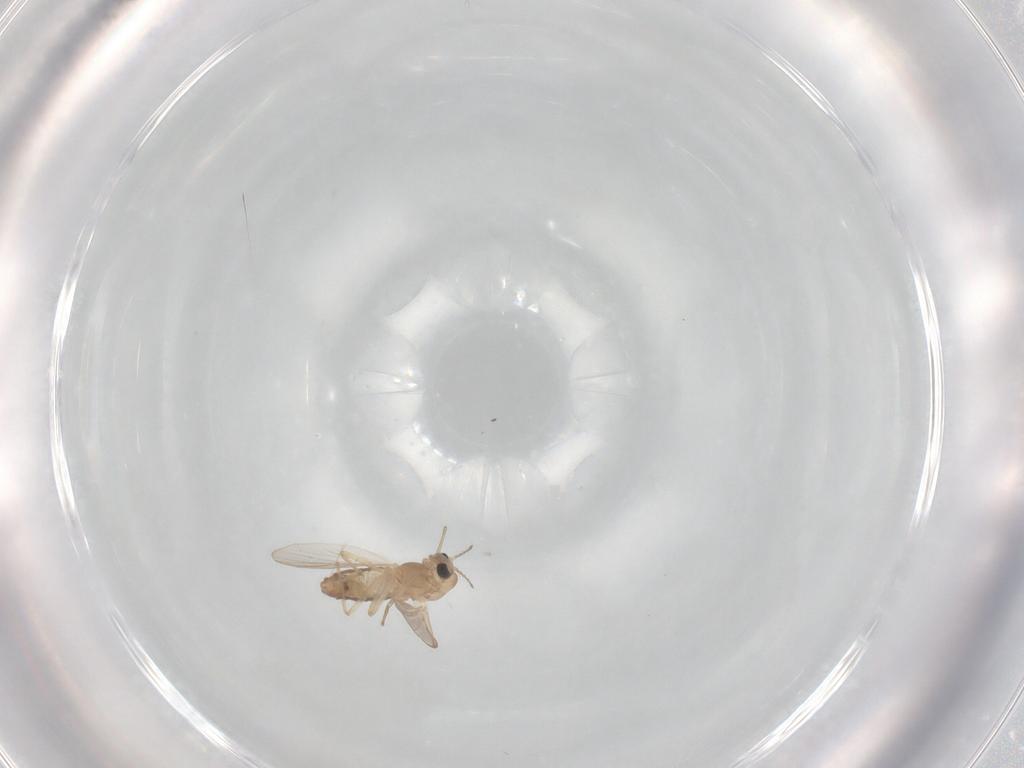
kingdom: Animalia
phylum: Arthropoda
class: Insecta
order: Diptera
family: Chironomidae
